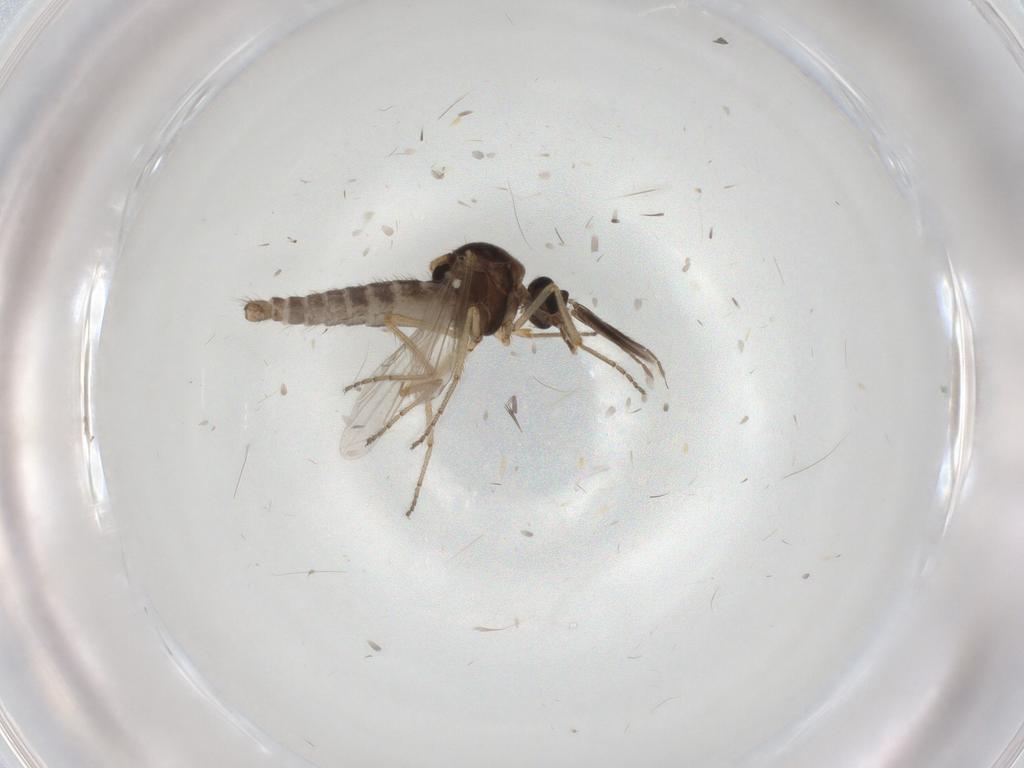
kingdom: Animalia
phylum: Arthropoda
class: Insecta
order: Diptera
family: Ceratopogonidae
